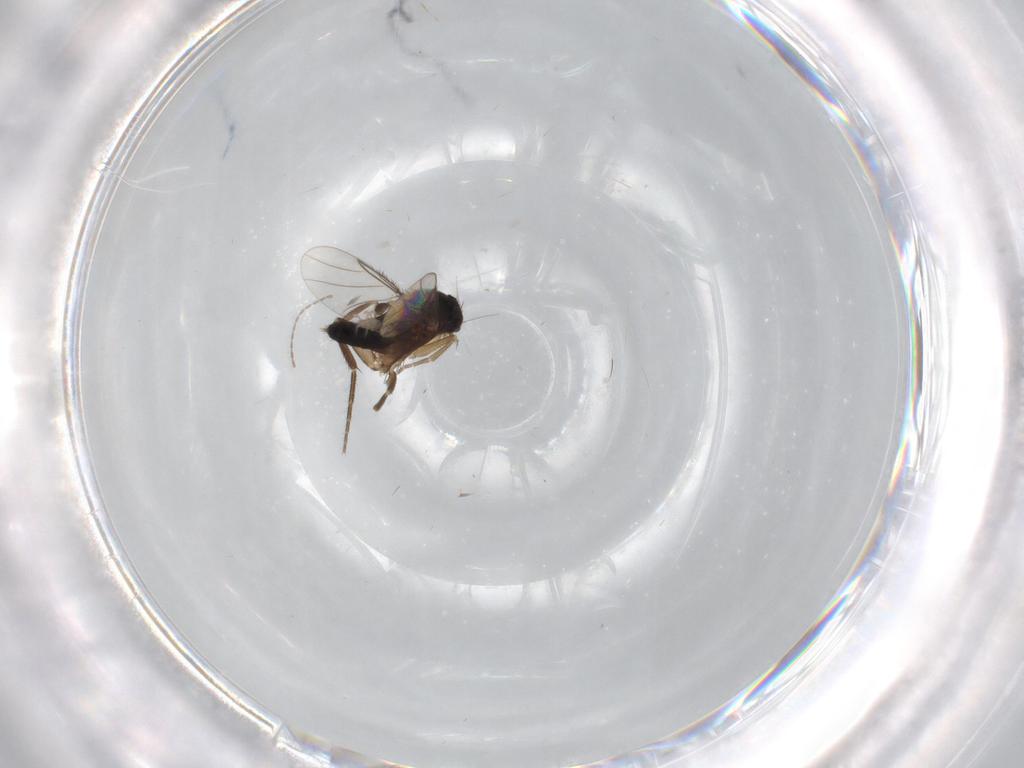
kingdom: Animalia
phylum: Arthropoda
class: Insecta
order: Diptera
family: Phoridae
